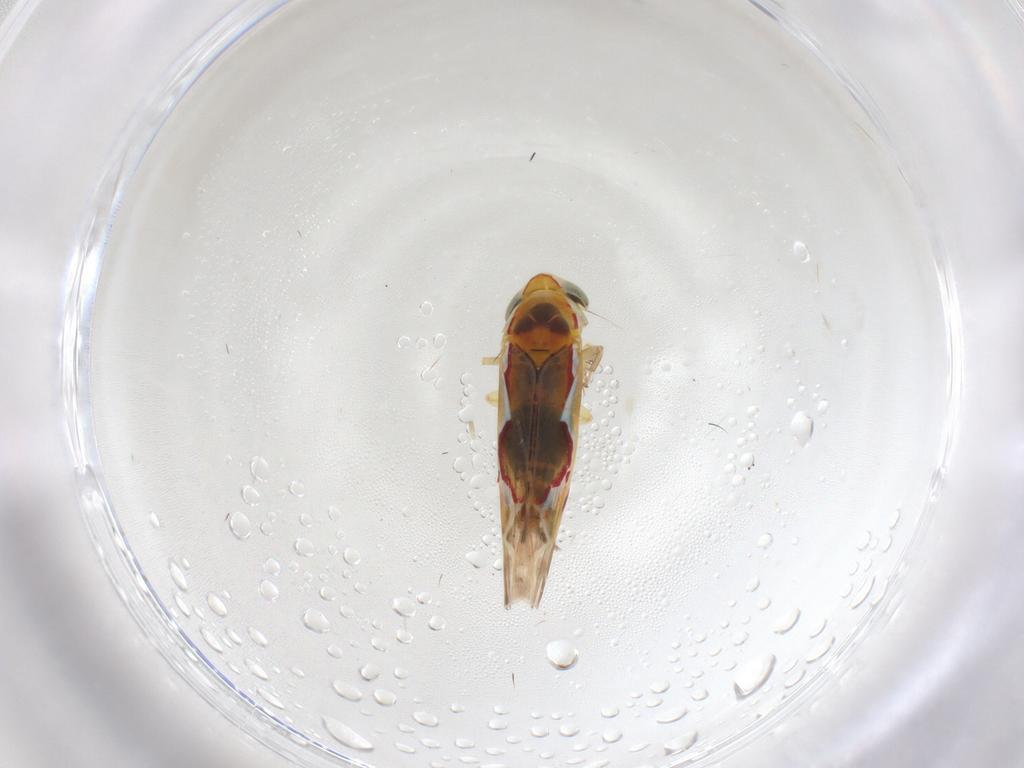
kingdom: Animalia
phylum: Arthropoda
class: Insecta
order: Hemiptera
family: Cicadellidae
